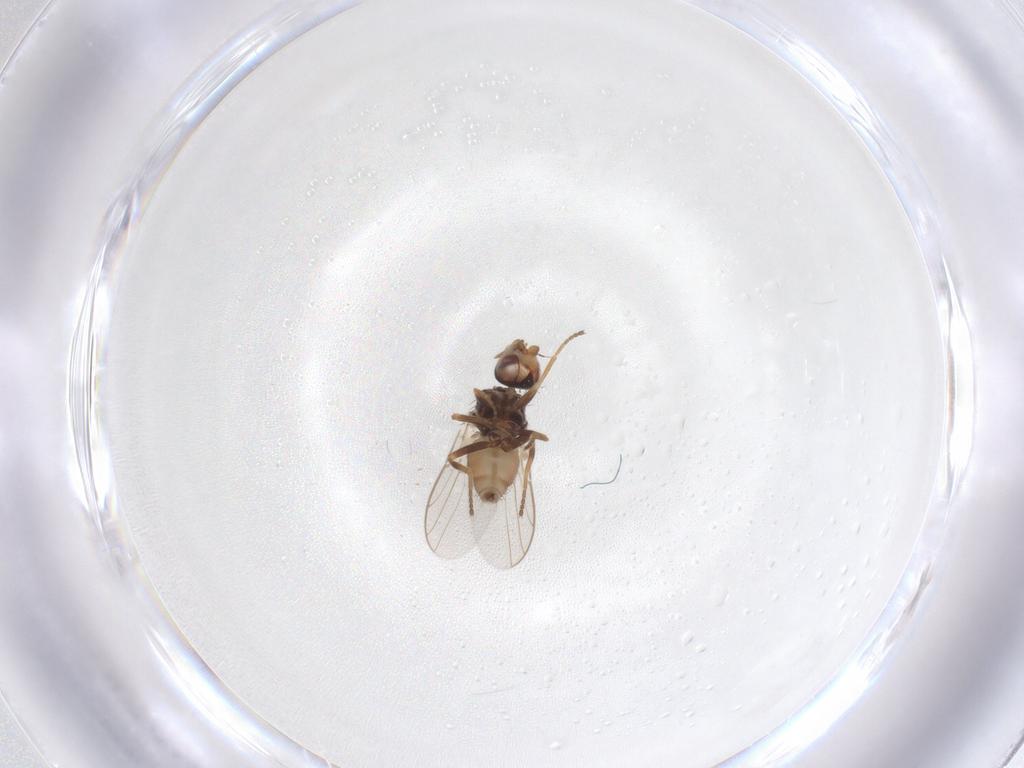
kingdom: Animalia
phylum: Arthropoda
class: Insecta
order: Diptera
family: Chloropidae
